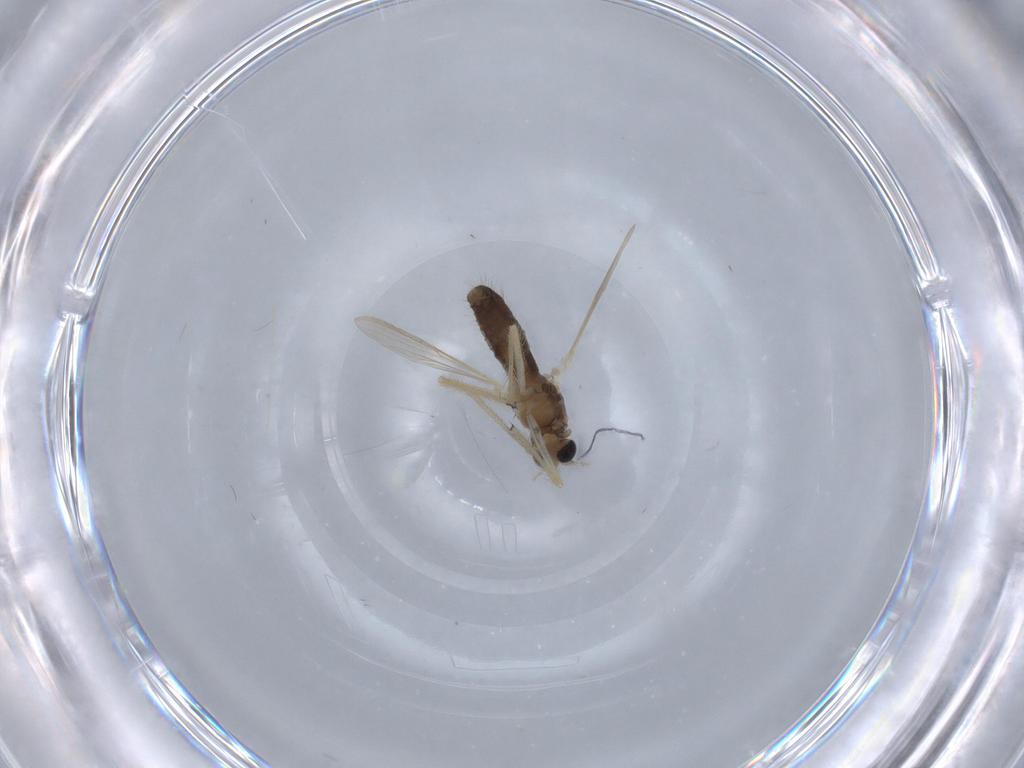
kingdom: Animalia
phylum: Arthropoda
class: Insecta
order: Diptera
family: Chironomidae
